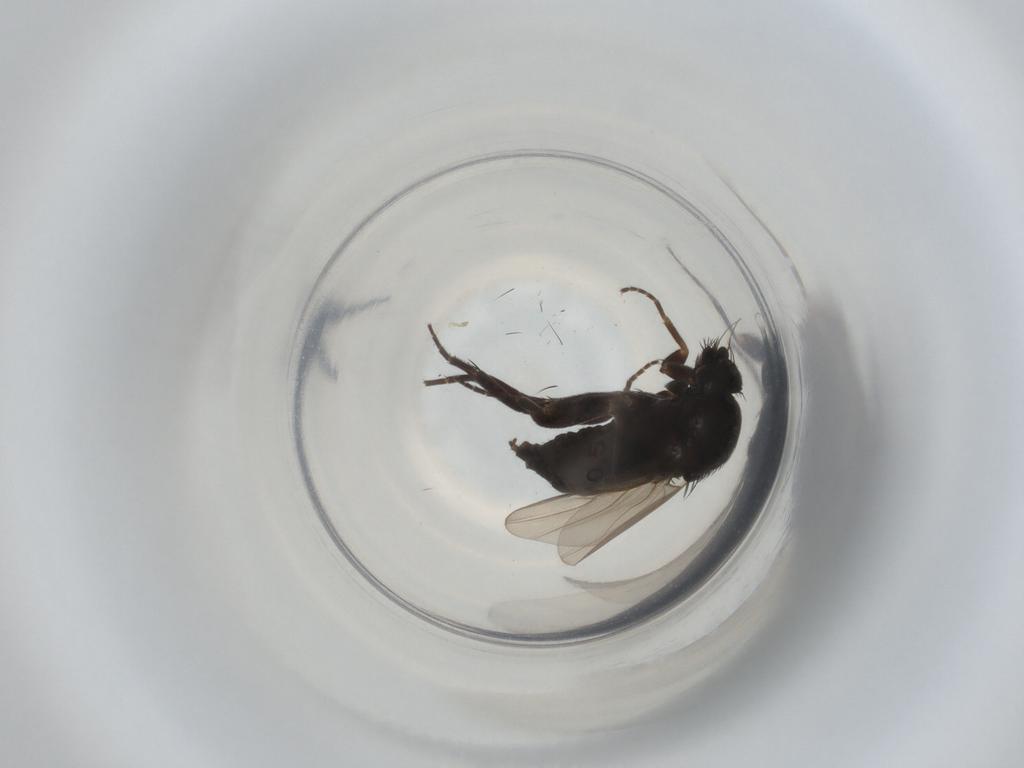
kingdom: Animalia
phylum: Arthropoda
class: Insecta
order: Diptera
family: Phoridae
